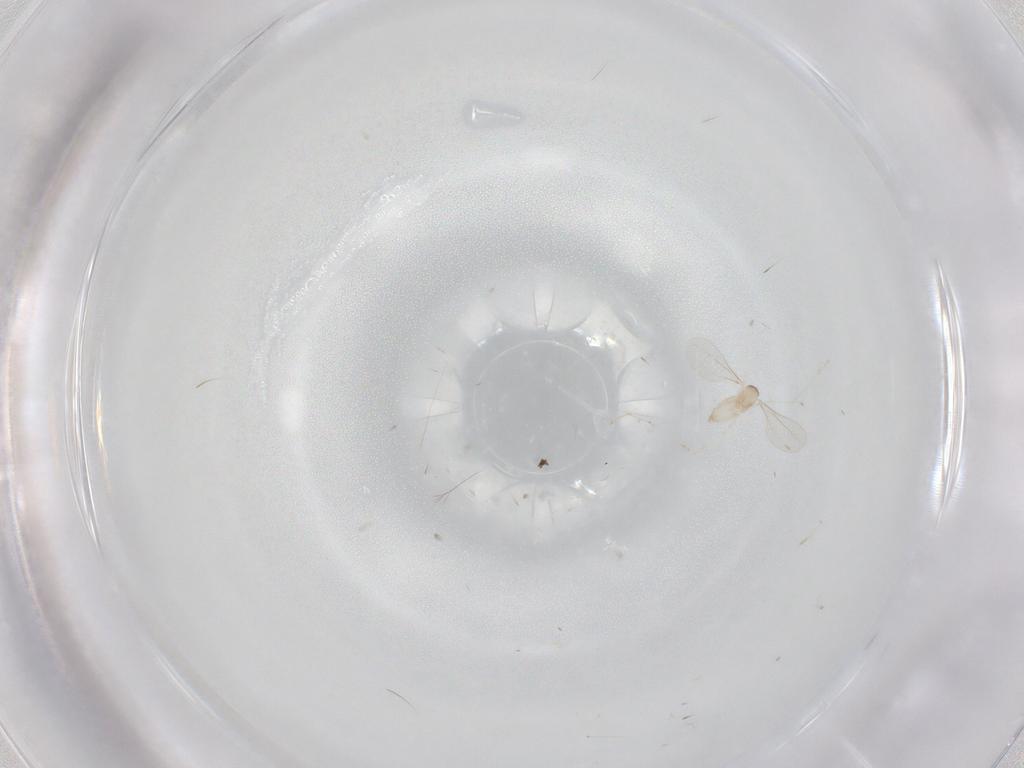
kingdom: Animalia
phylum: Arthropoda
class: Insecta
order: Diptera
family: Cecidomyiidae
